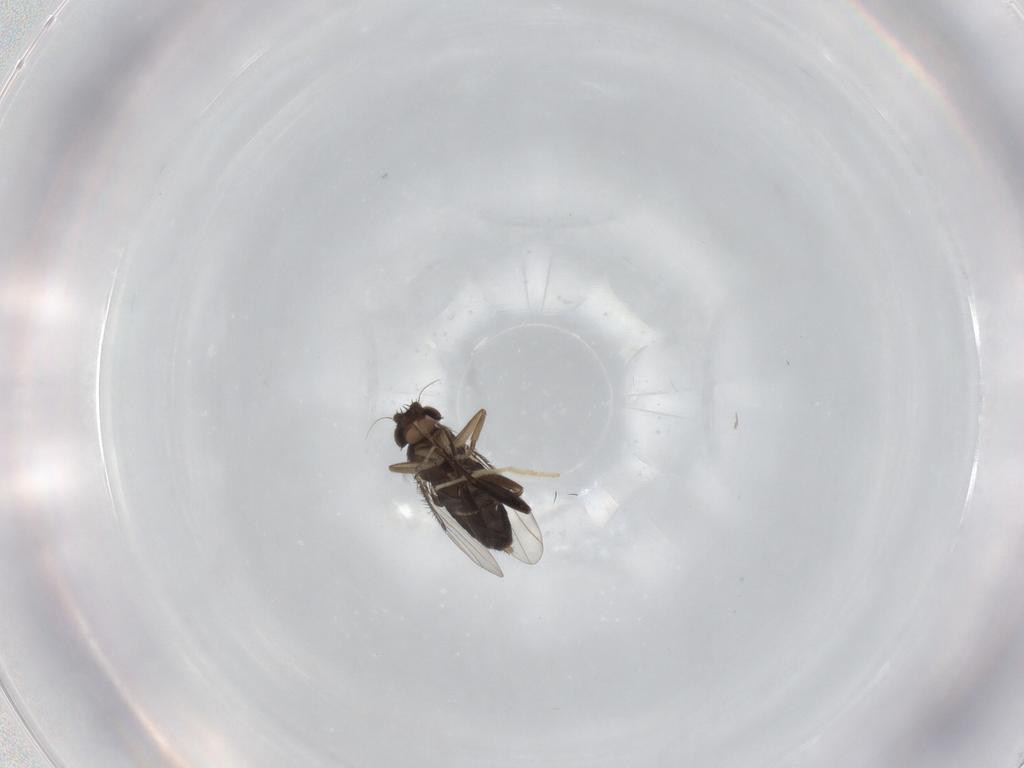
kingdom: Animalia
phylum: Arthropoda
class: Insecta
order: Diptera
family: Phoridae
